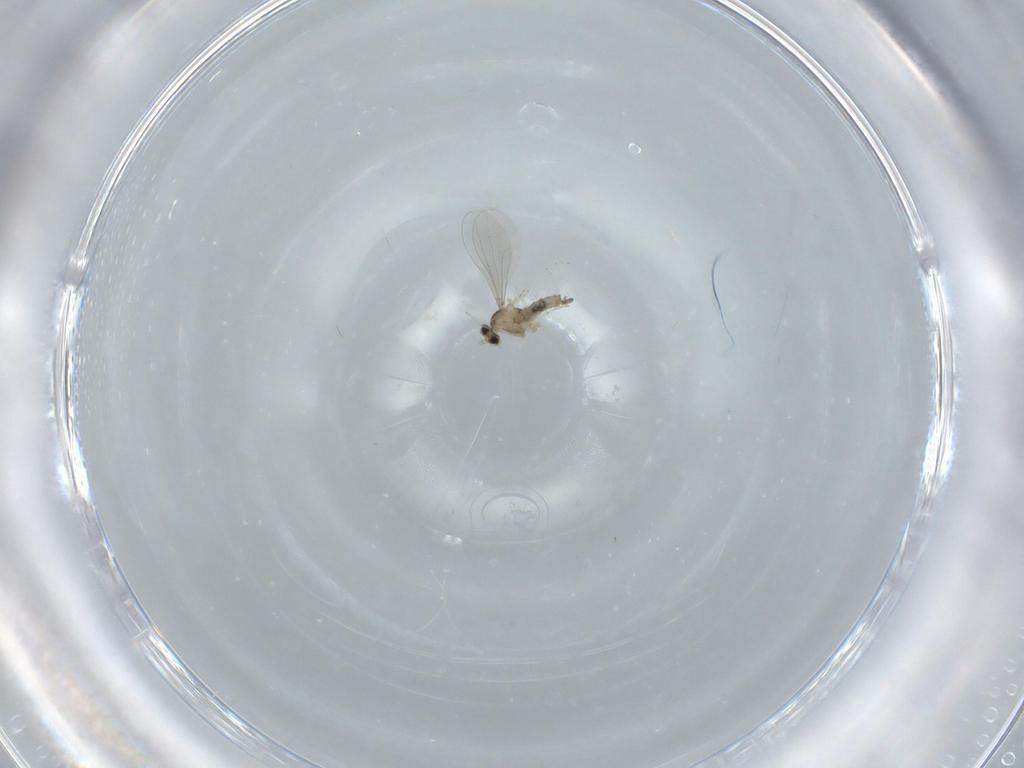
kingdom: Animalia
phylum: Arthropoda
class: Insecta
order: Diptera
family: Cecidomyiidae
